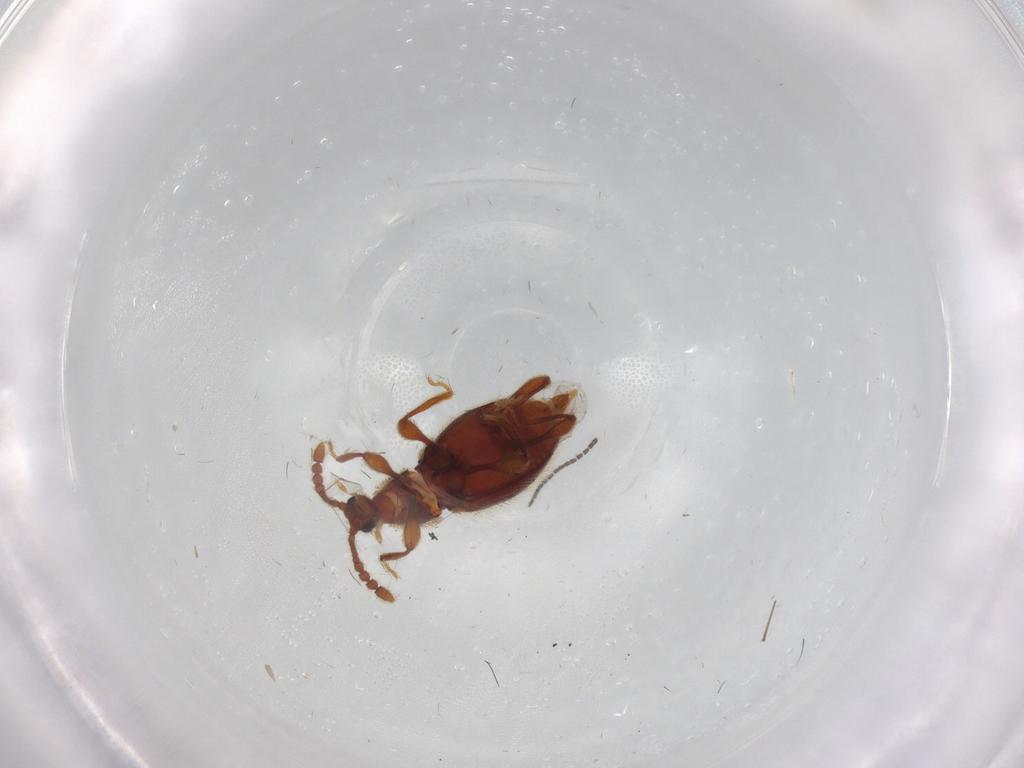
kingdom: Animalia
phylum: Arthropoda
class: Insecta
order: Coleoptera
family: Staphylinidae
